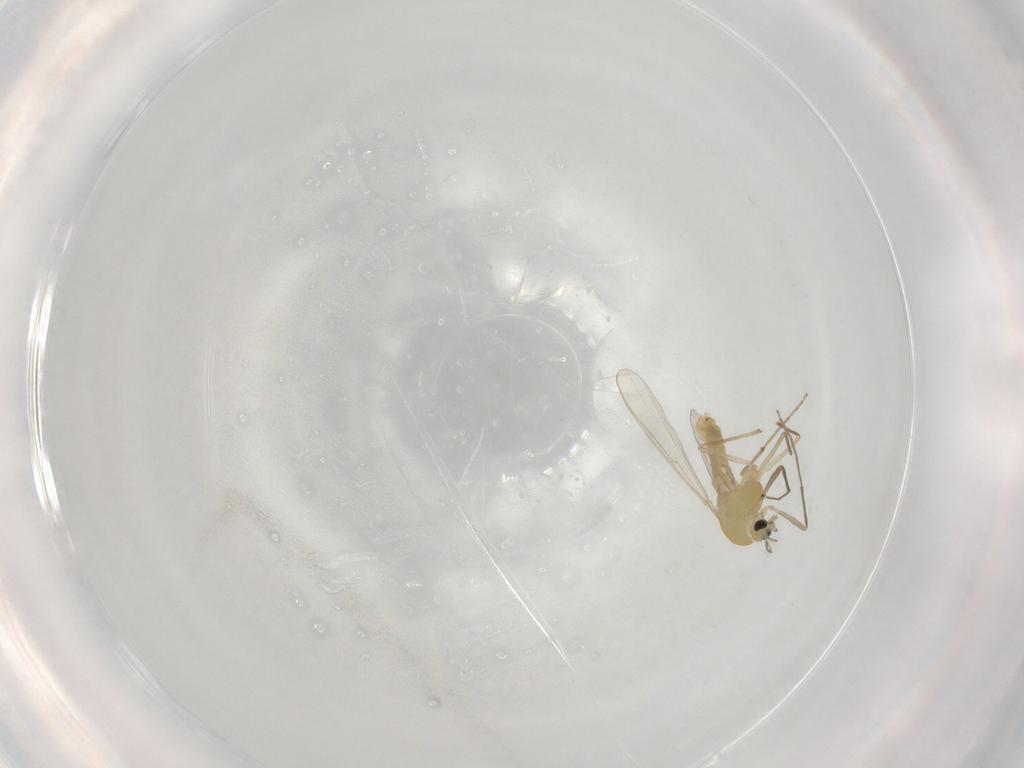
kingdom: Animalia
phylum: Arthropoda
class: Insecta
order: Diptera
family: Chironomidae
